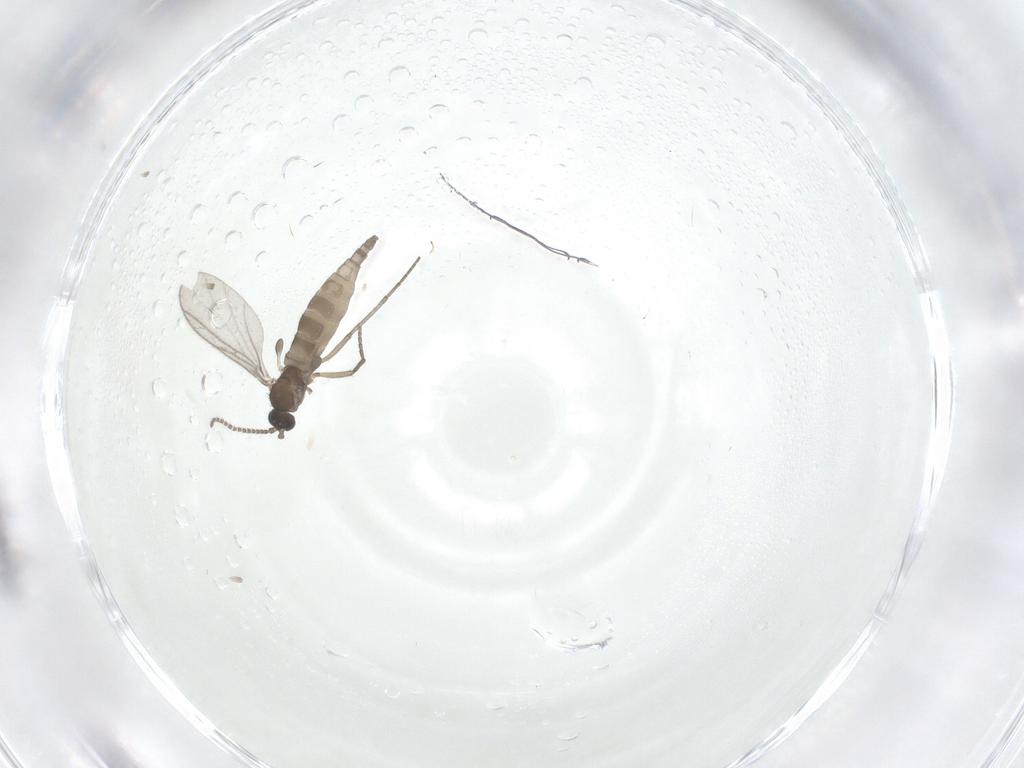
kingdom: Animalia
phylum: Arthropoda
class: Insecta
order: Diptera
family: Sciaridae
